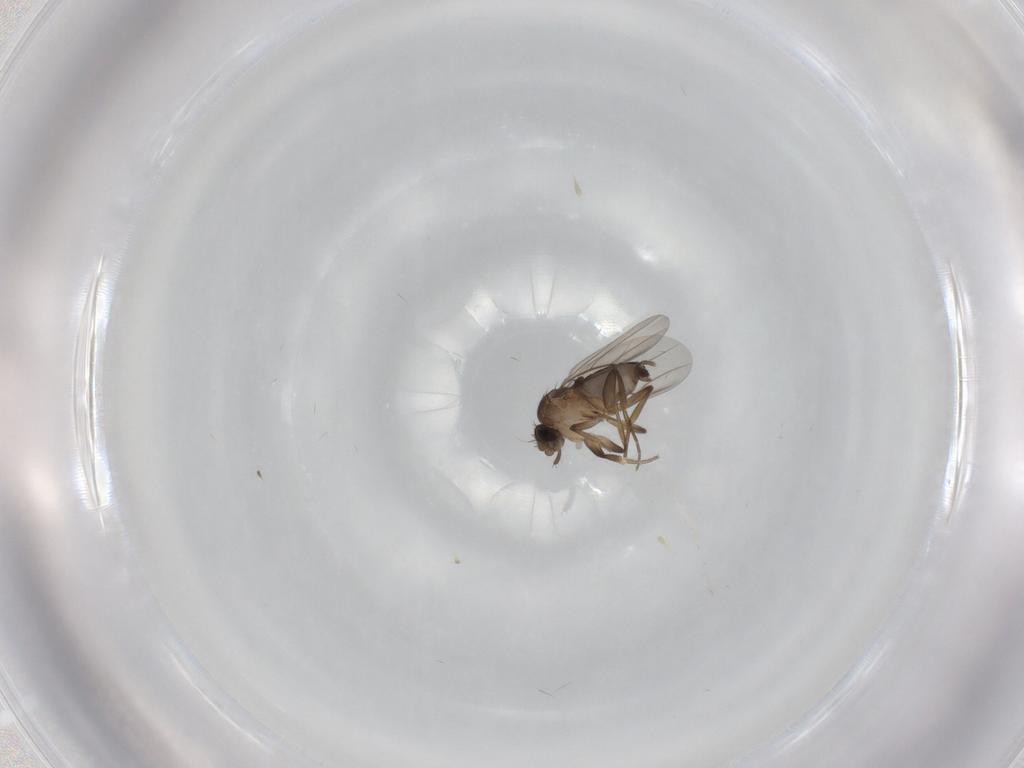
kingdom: Animalia
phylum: Arthropoda
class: Insecta
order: Diptera
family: Phoridae
